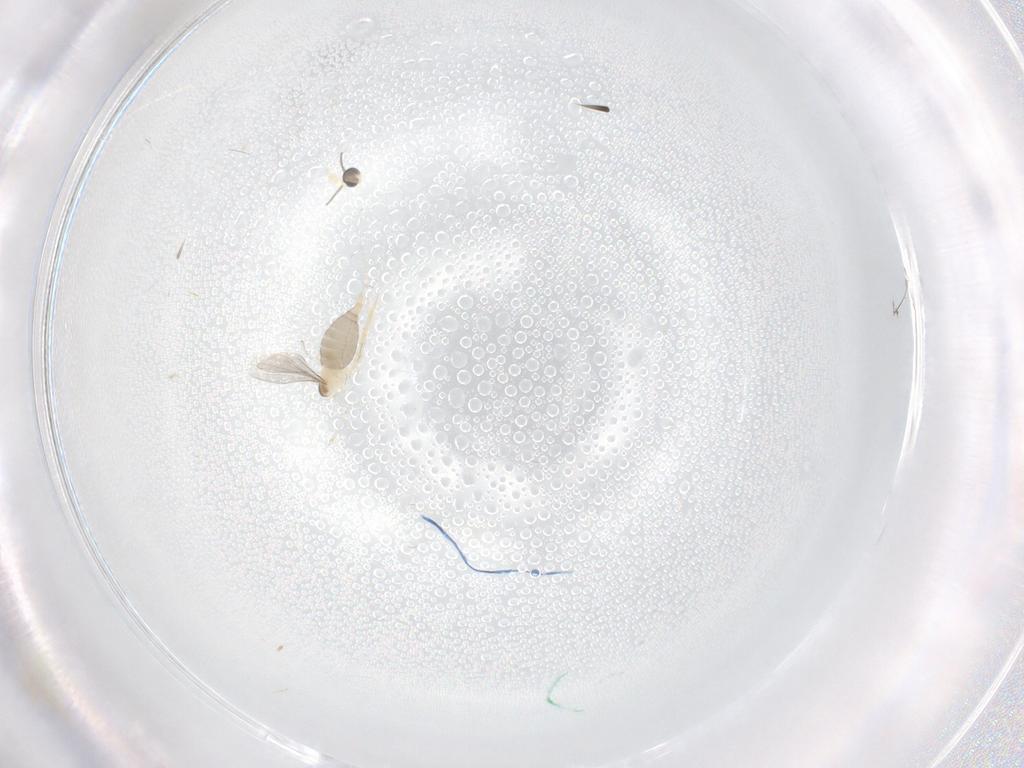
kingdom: Animalia
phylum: Arthropoda
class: Insecta
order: Diptera
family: Cecidomyiidae
